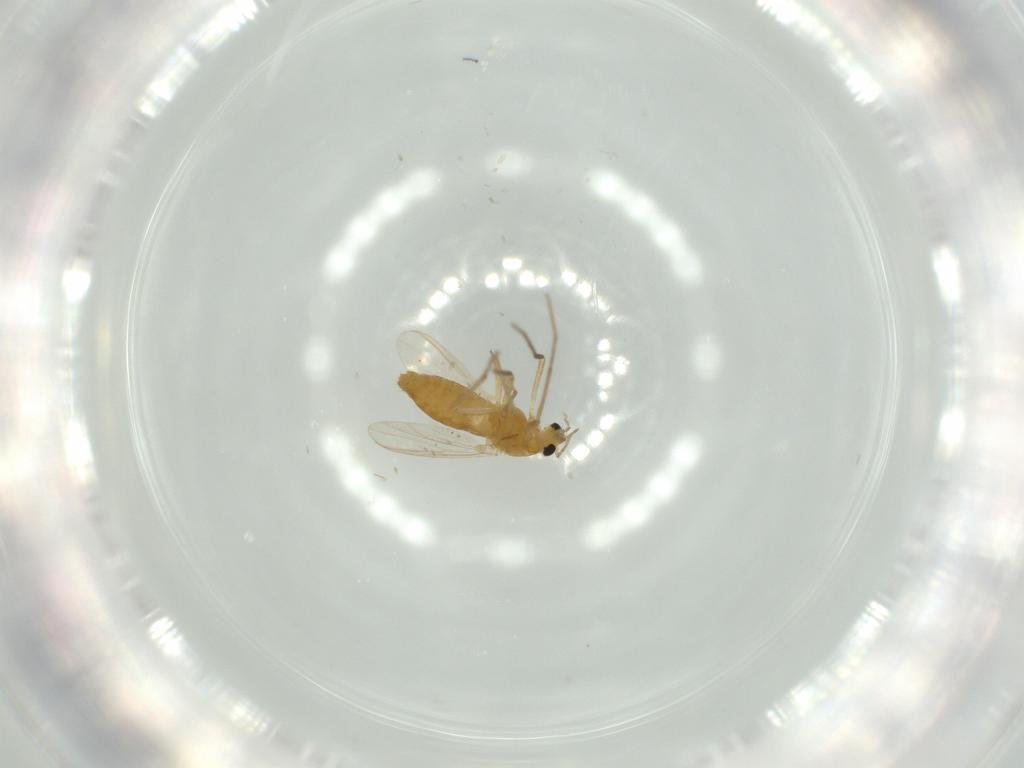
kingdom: Animalia
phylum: Arthropoda
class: Insecta
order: Diptera
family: Chironomidae
